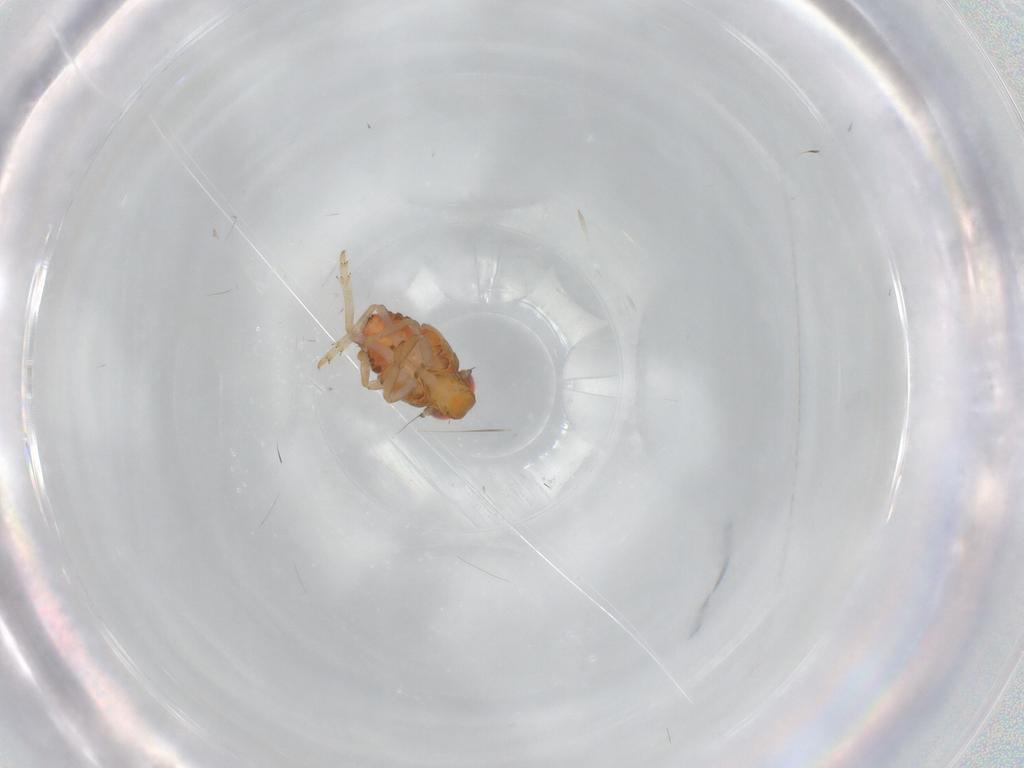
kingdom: Animalia
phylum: Arthropoda
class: Insecta
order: Hemiptera
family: Issidae
